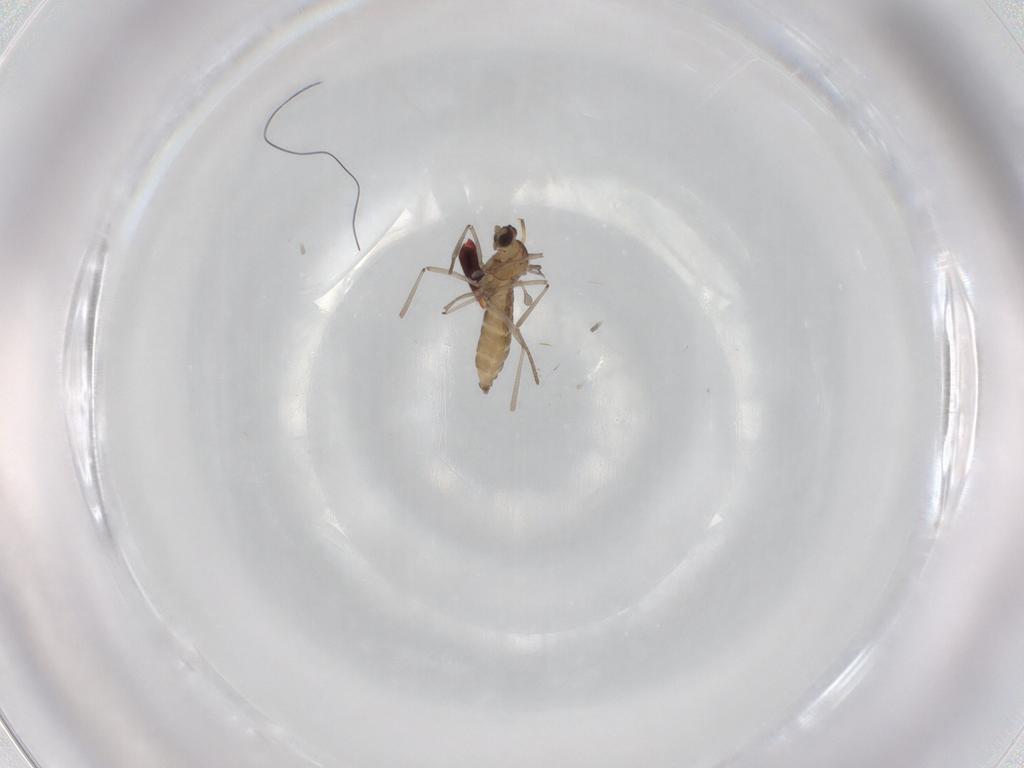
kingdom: Animalia
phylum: Arthropoda
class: Insecta
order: Diptera
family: Cecidomyiidae
